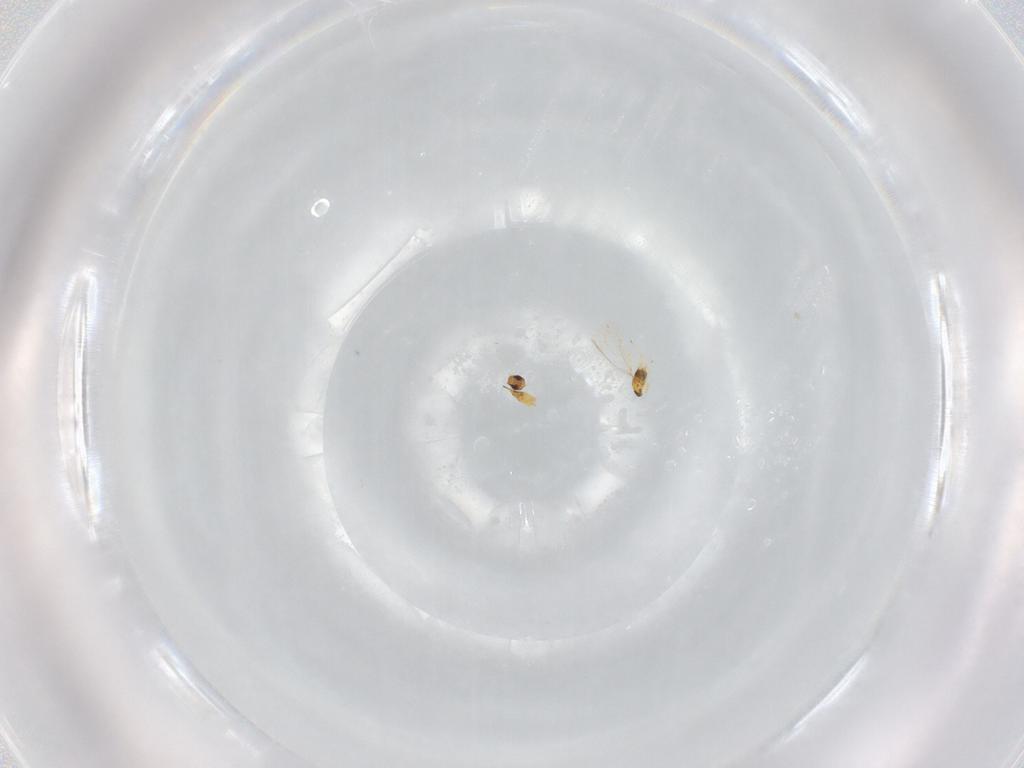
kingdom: Animalia
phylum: Arthropoda
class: Insecta
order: Hymenoptera
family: Mymaridae
